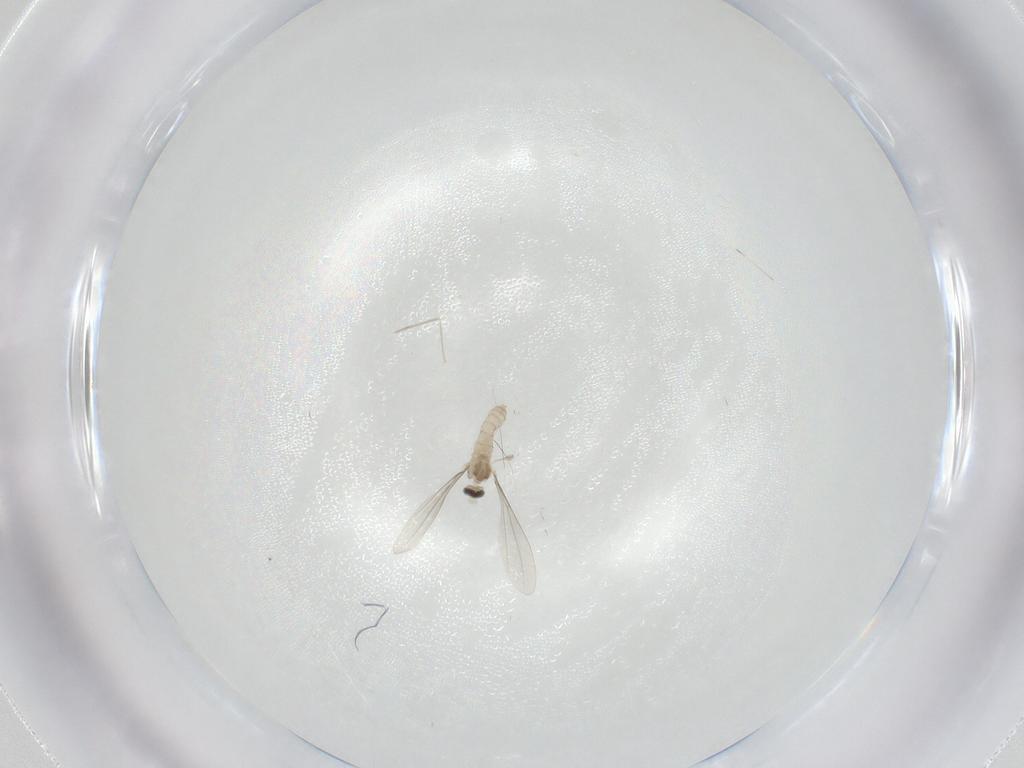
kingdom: Animalia
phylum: Arthropoda
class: Insecta
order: Diptera
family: Cecidomyiidae
